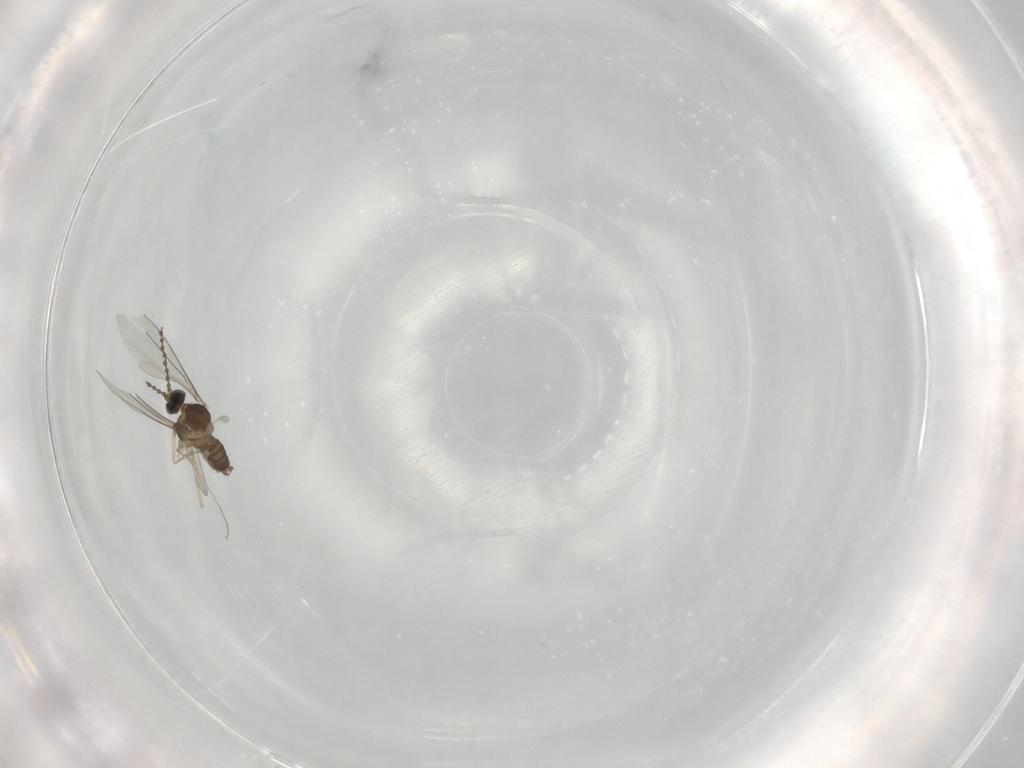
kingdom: Animalia
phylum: Arthropoda
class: Insecta
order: Diptera
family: Cecidomyiidae
